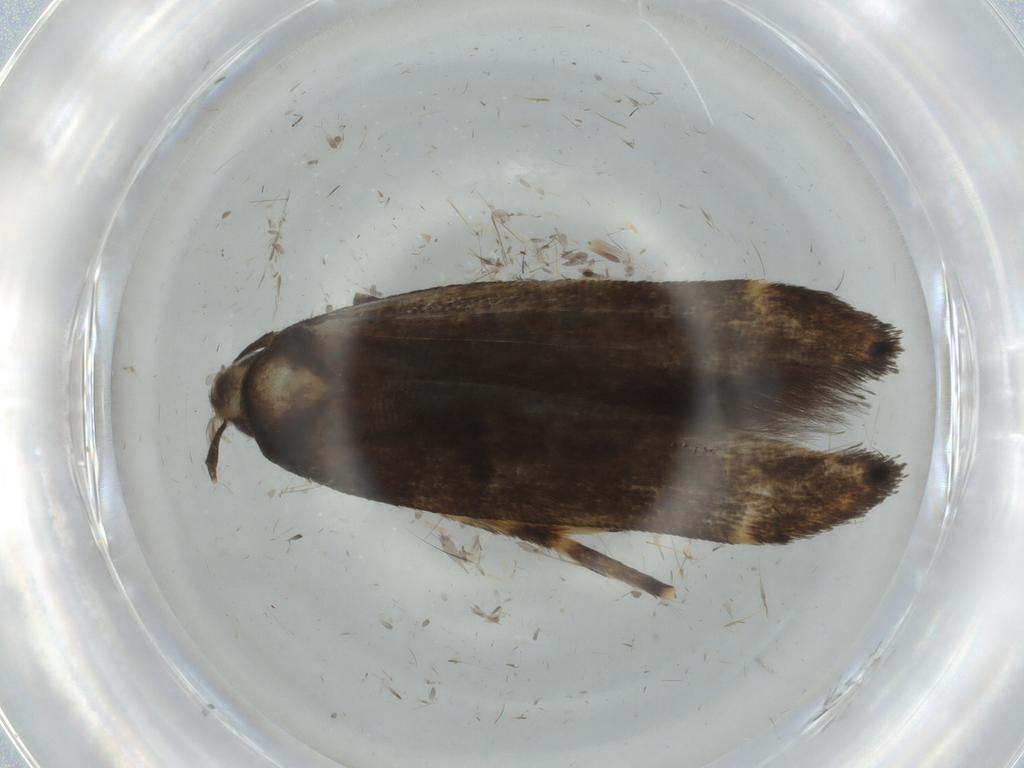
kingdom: Animalia
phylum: Arthropoda
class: Insecta
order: Lepidoptera
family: Cosmopterigidae
